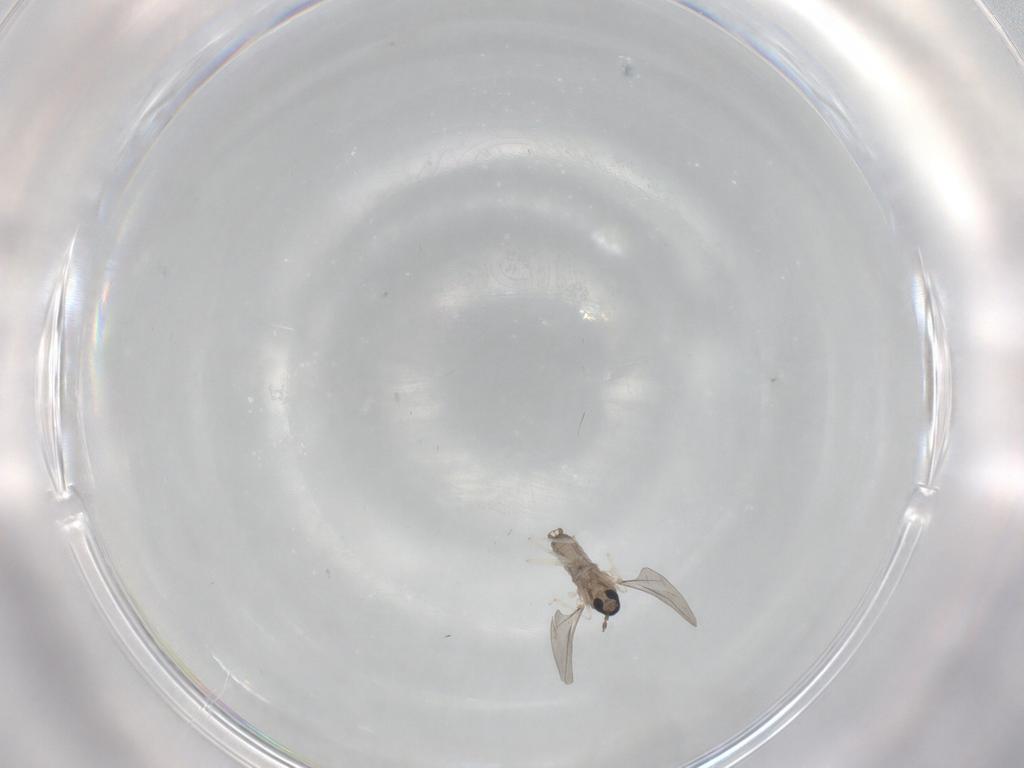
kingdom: Animalia
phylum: Arthropoda
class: Insecta
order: Diptera
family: Cecidomyiidae
